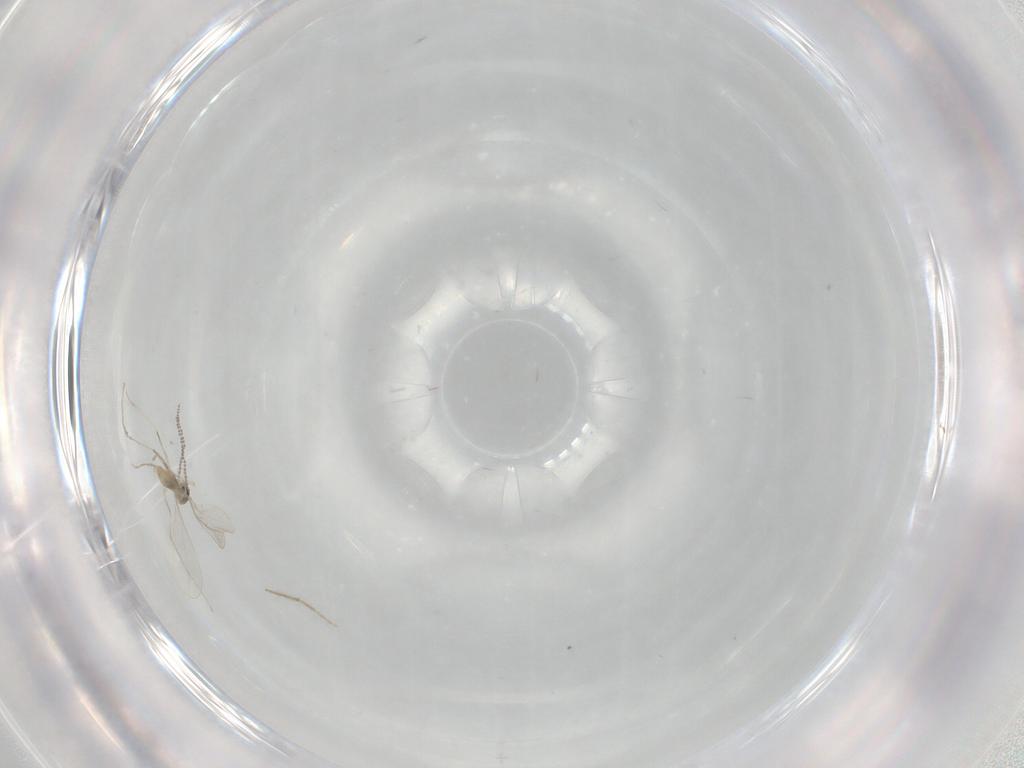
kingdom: Animalia
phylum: Arthropoda
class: Insecta
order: Diptera
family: Chironomidae
